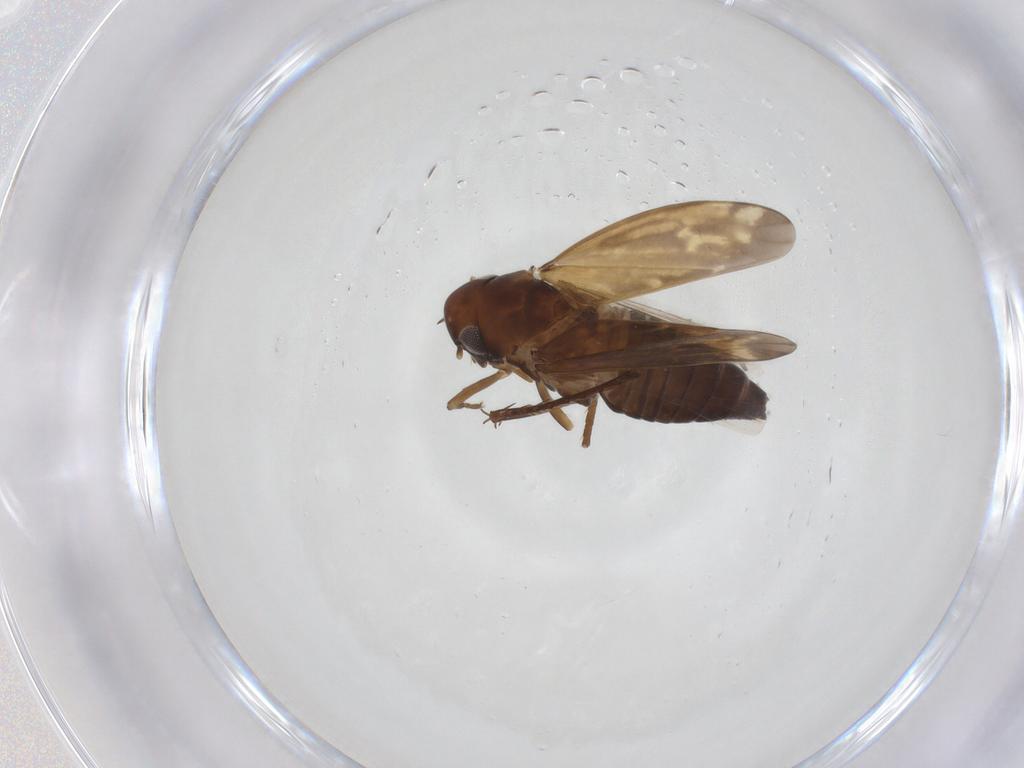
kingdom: Animalia
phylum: Arthropoda
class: Insecta
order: Hemiptera
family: Cicadellidae
